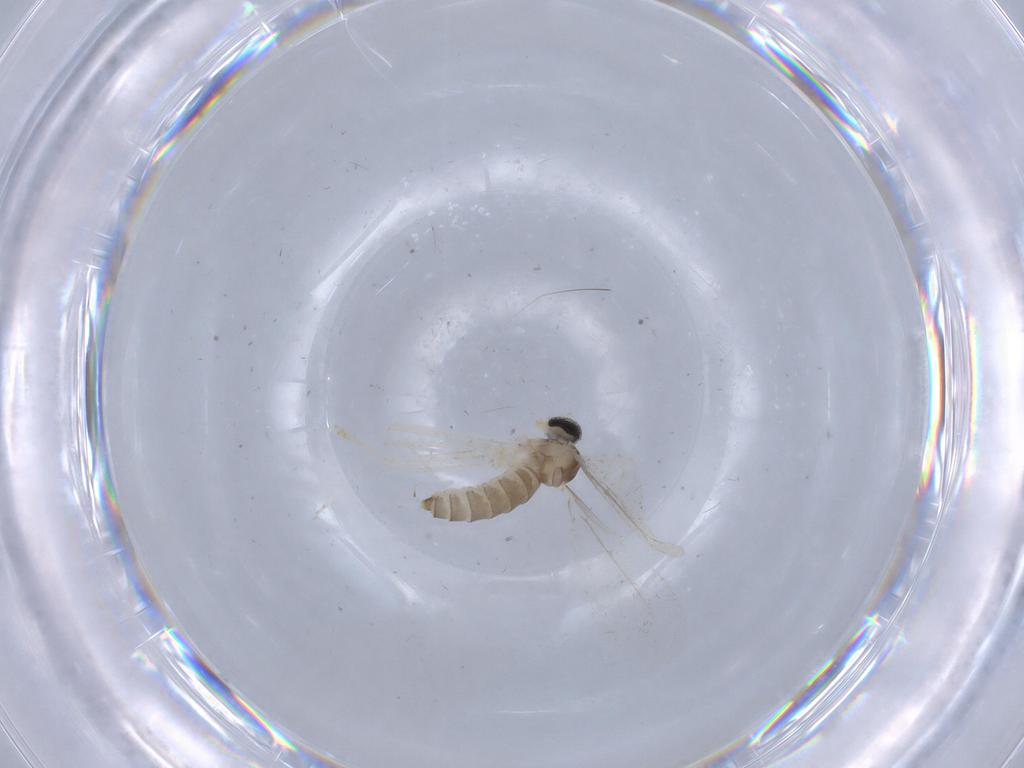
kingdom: Animalia
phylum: Arthropoda
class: Insecta
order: Diptera
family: Cecidomyiidae
